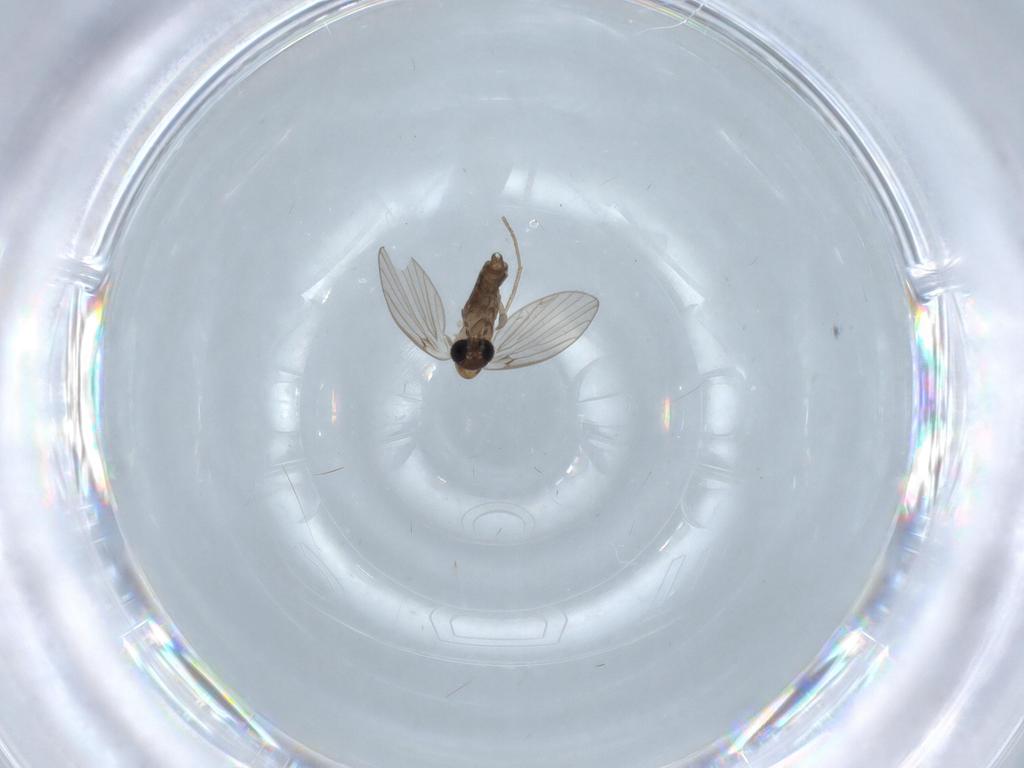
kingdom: Animalia
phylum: Arthropoda
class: Insecta
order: Diptera
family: Psychodidae
